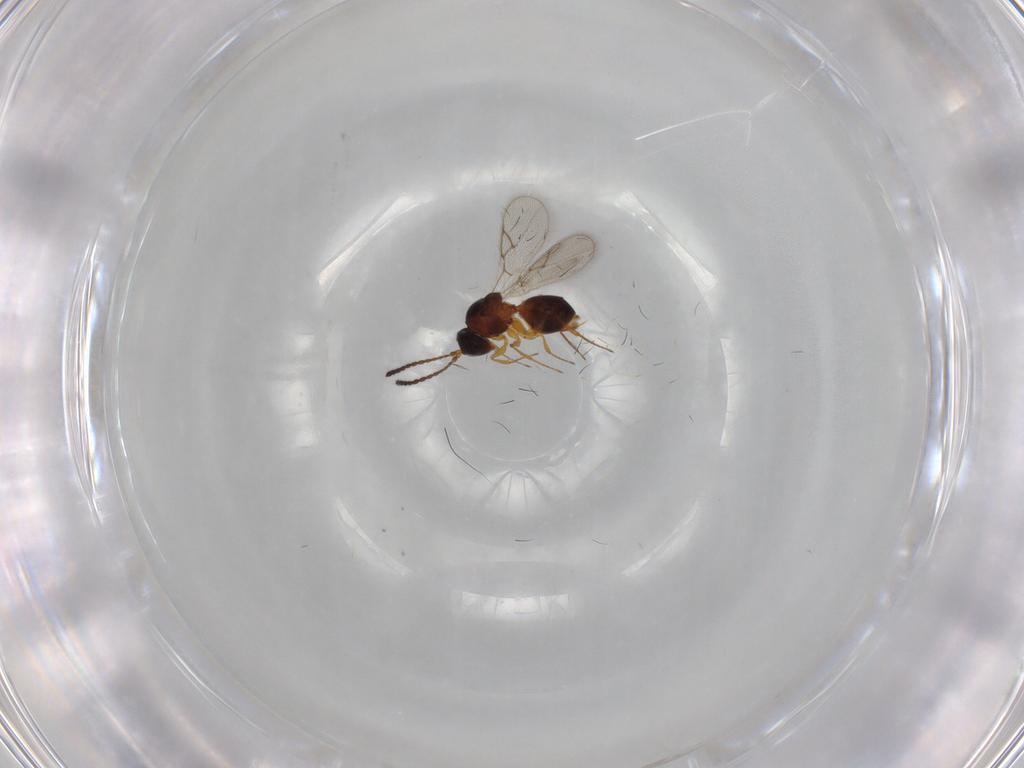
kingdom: Animalia
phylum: Arthropoda
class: Insecta
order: Hymenoptera
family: Figitidae
